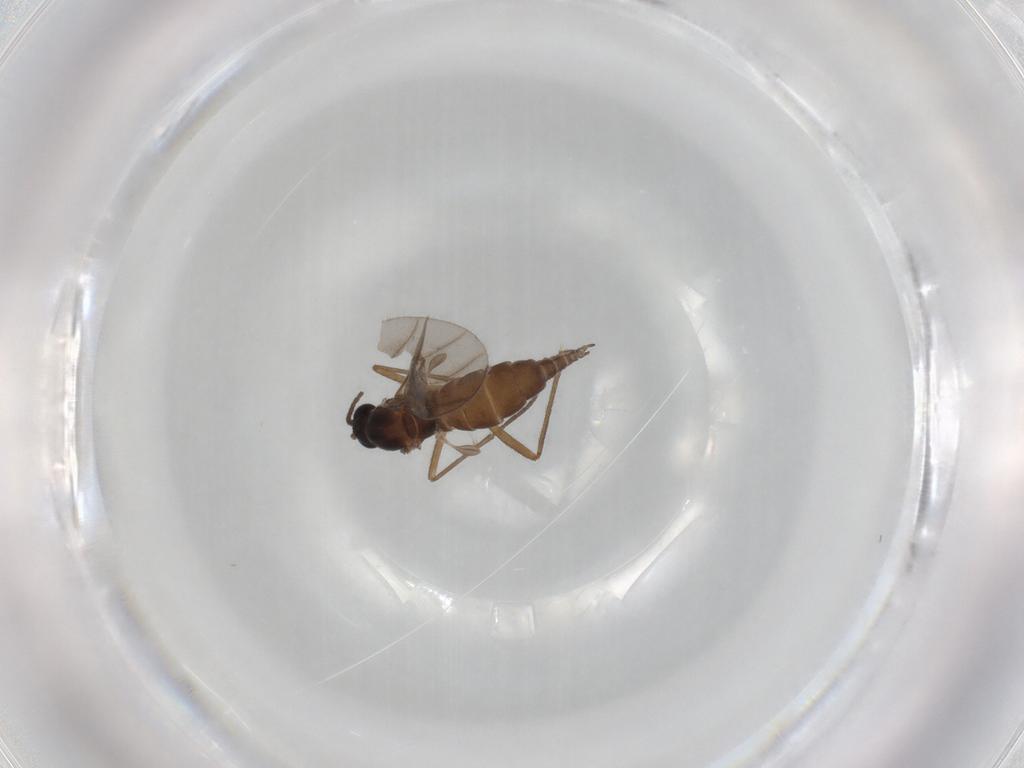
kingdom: Animalia
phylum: Arthropoda
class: Insecta
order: Diptera
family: Sciaridae
